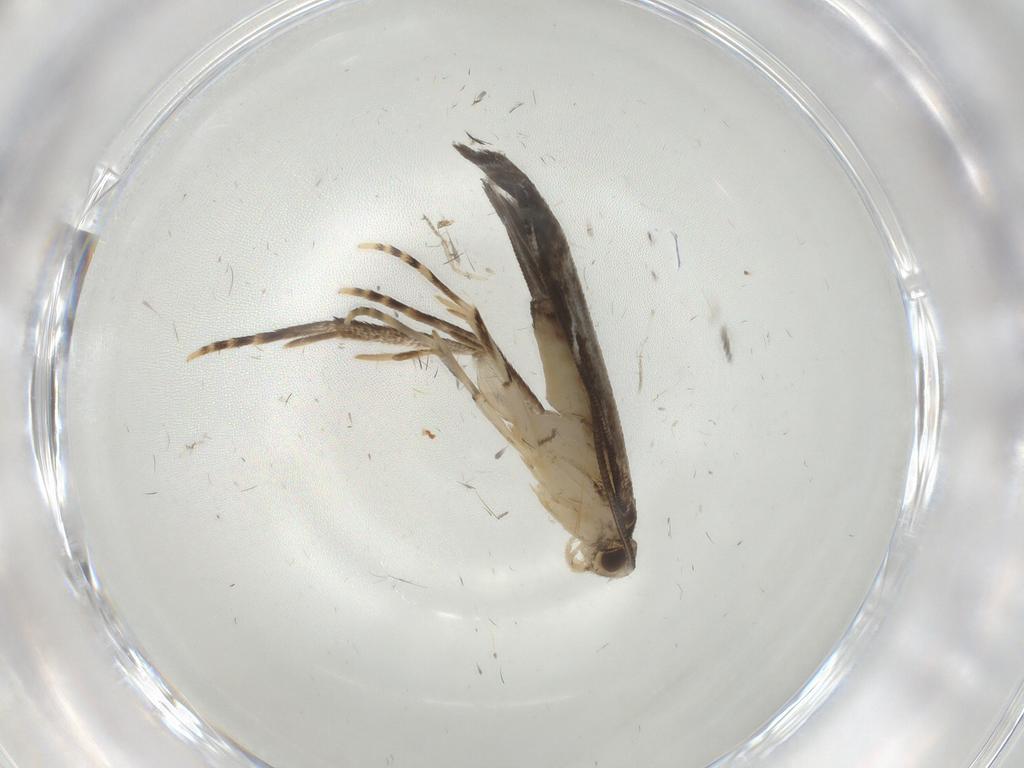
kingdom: Animalia
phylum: Arthropoda
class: Insecta
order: Lepidoptera
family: Dryadaulidae
